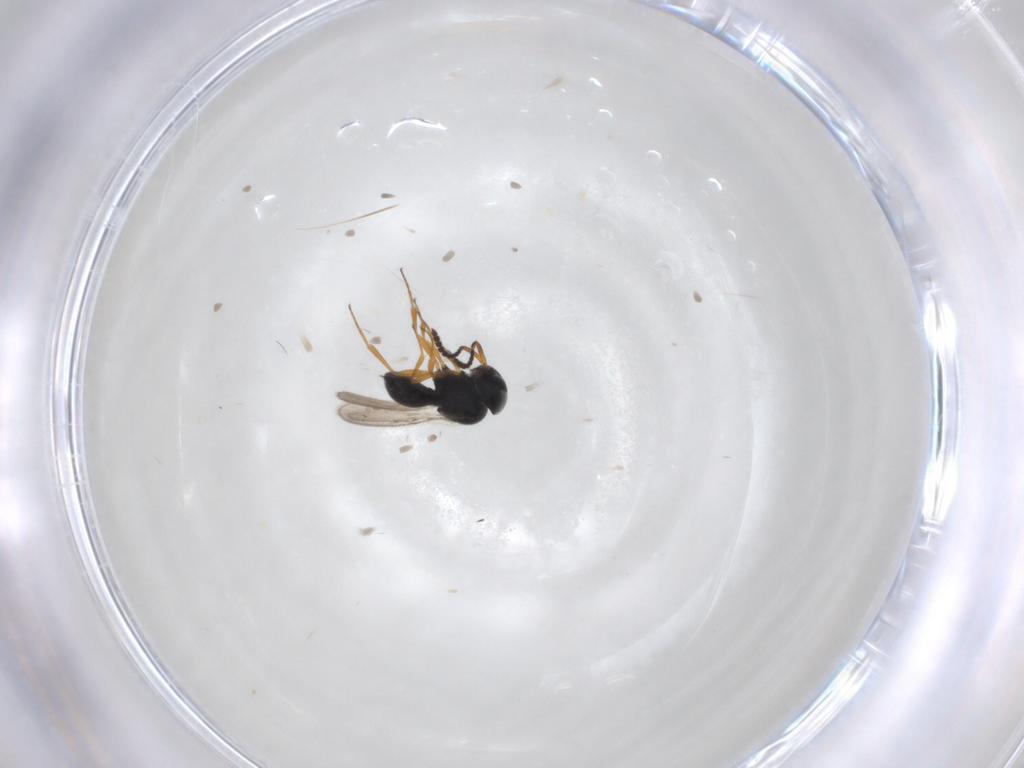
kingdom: Animalia
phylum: Arthropoda
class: Insecta
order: Hymenoptera
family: Scelionidae
